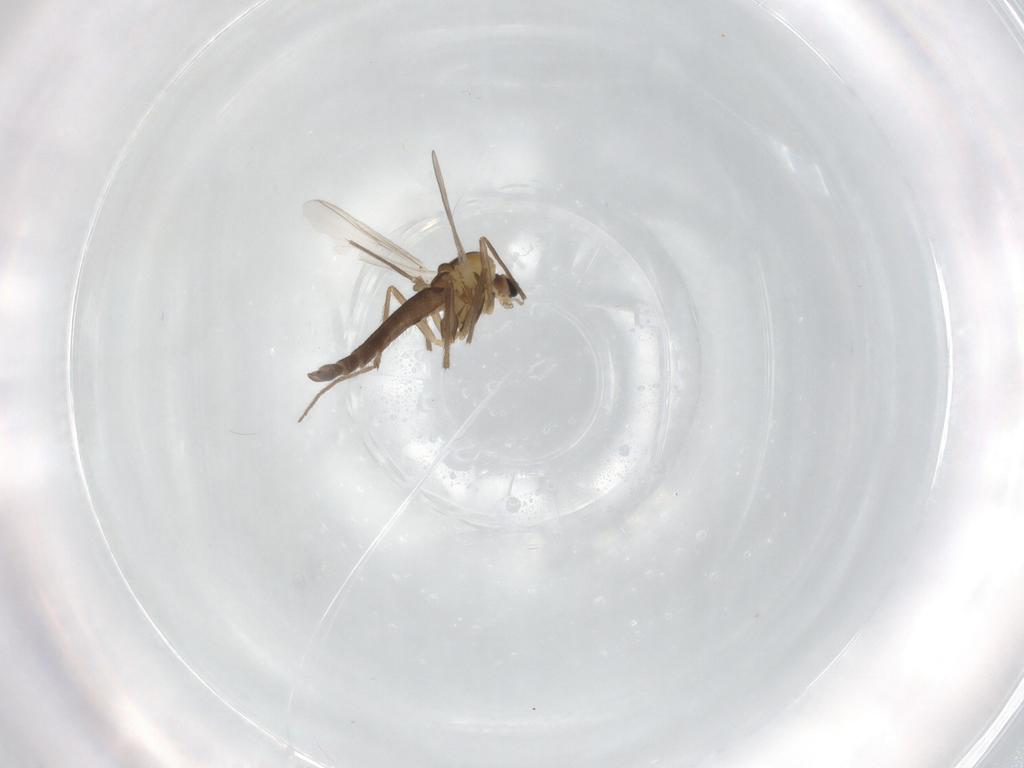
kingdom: Animalia
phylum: Arthropoda
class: Insecta
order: Diptera
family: Chironomidae
